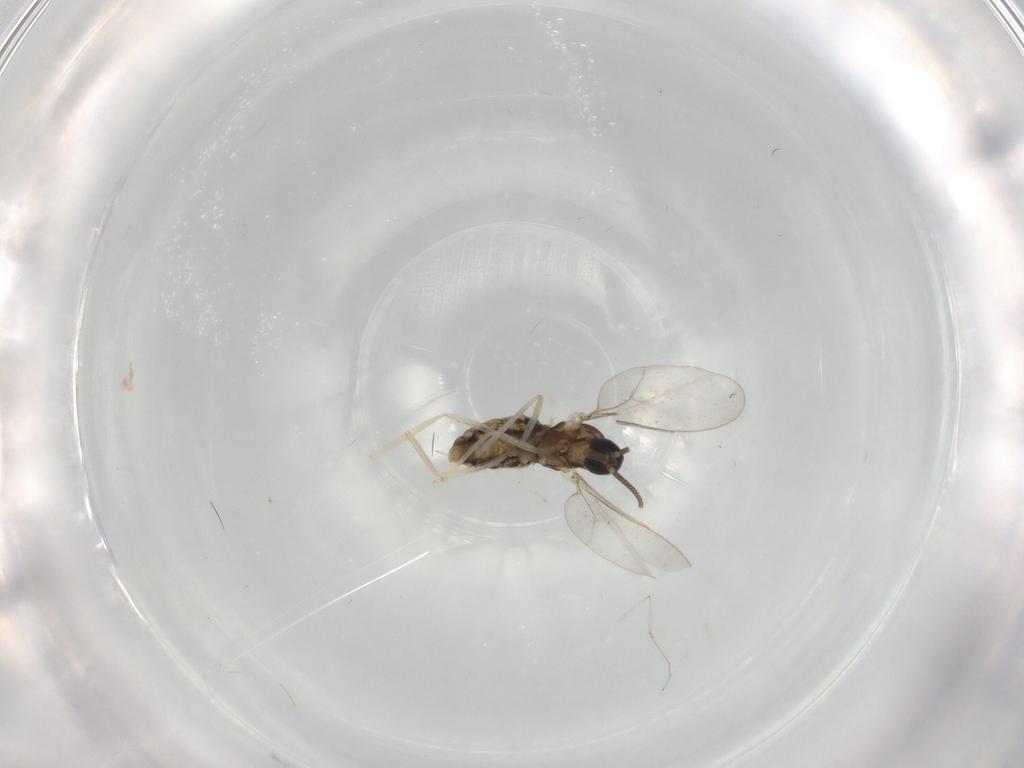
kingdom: Animalia
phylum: Arthropoda
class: Insecta
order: Diptera
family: Cecidomyiidae
